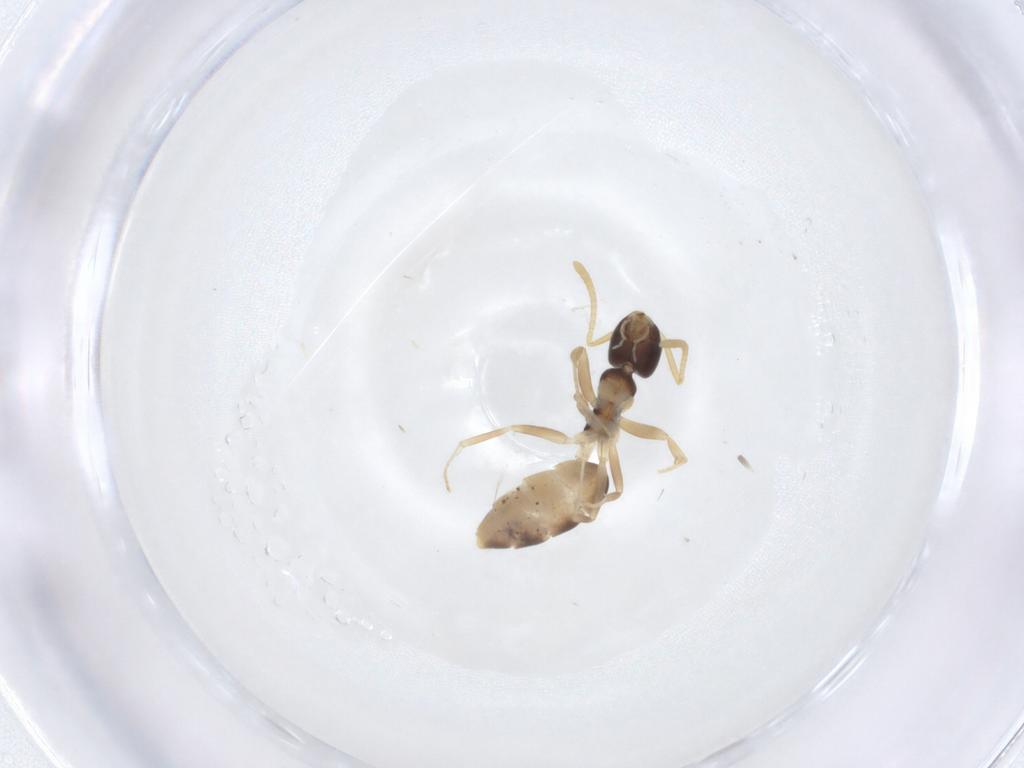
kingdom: Animalia
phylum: Arthropoda
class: Insecta
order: Hymenoptera
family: Formicidae
